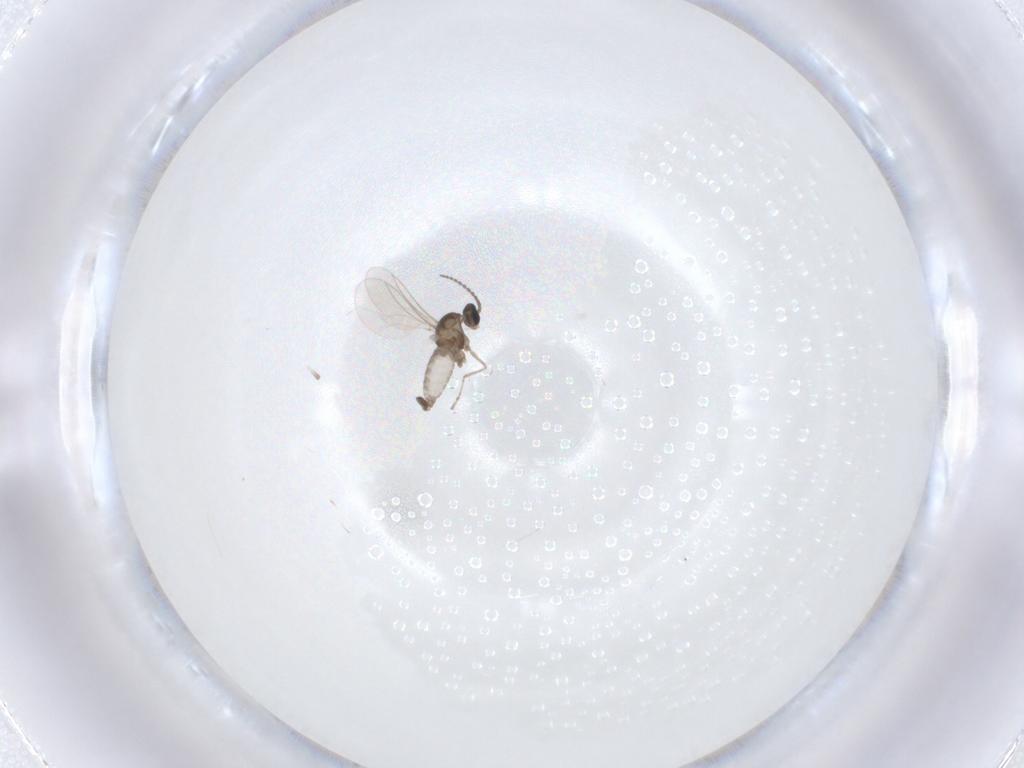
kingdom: Animalia
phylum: Arthropoda
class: Insecta
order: Diptera
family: Cecidomyiidae
